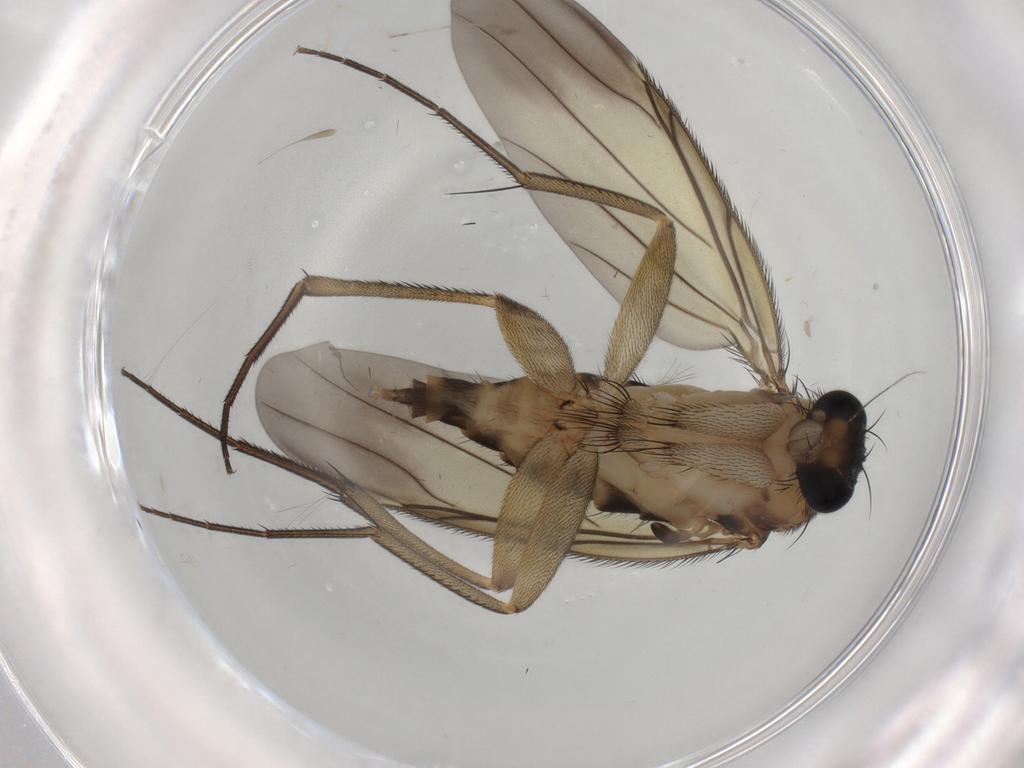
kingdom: Animalia
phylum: Arthropoda
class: Insecta
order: Diptera
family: Phoridae
